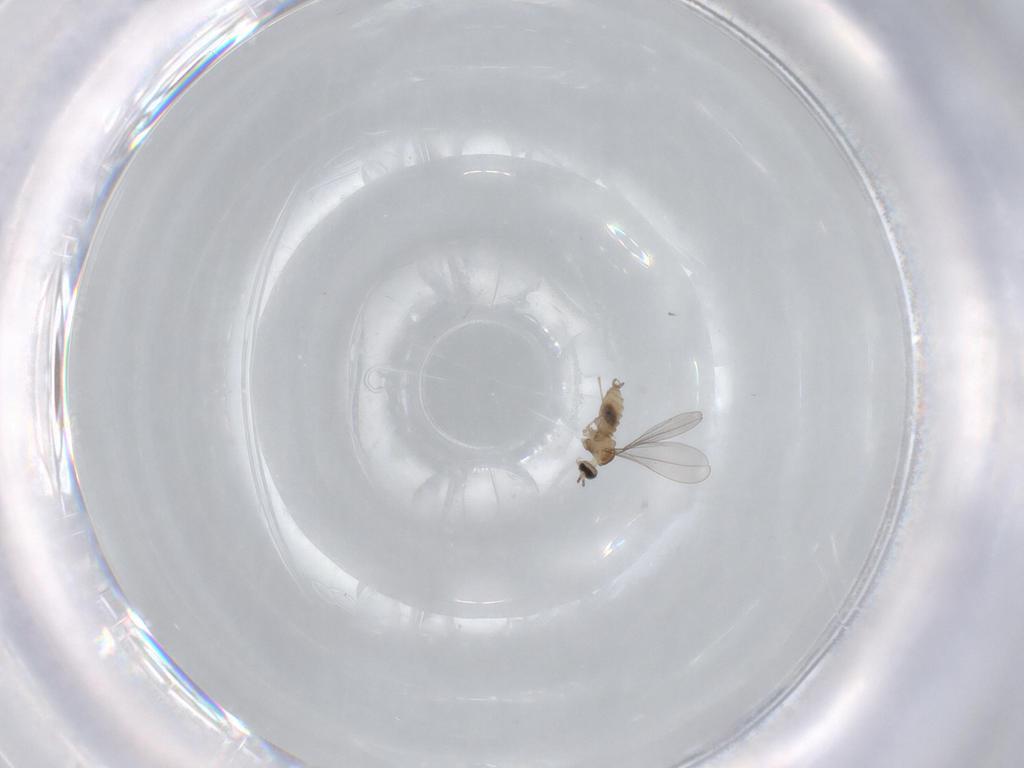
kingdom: Animalia
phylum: Arthropoda
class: Insecta
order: Diptera
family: Cecidomyiidae
